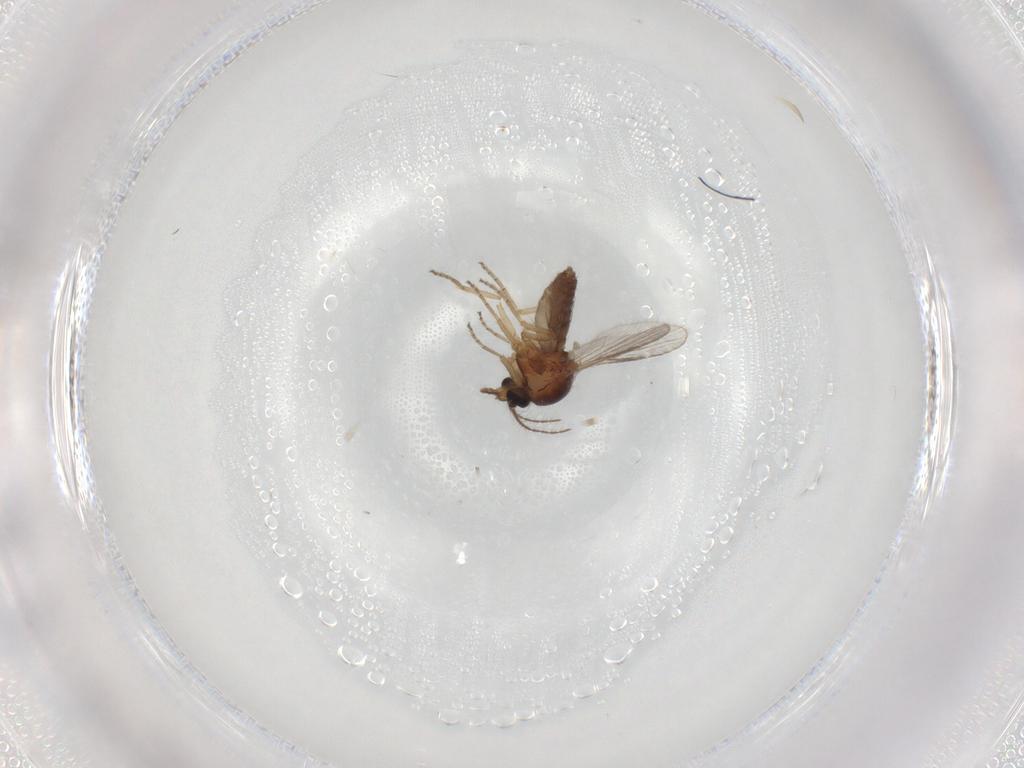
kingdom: Animalia
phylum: Arthropoda
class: Insecta
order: Diptera
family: Ceratopogonidae
